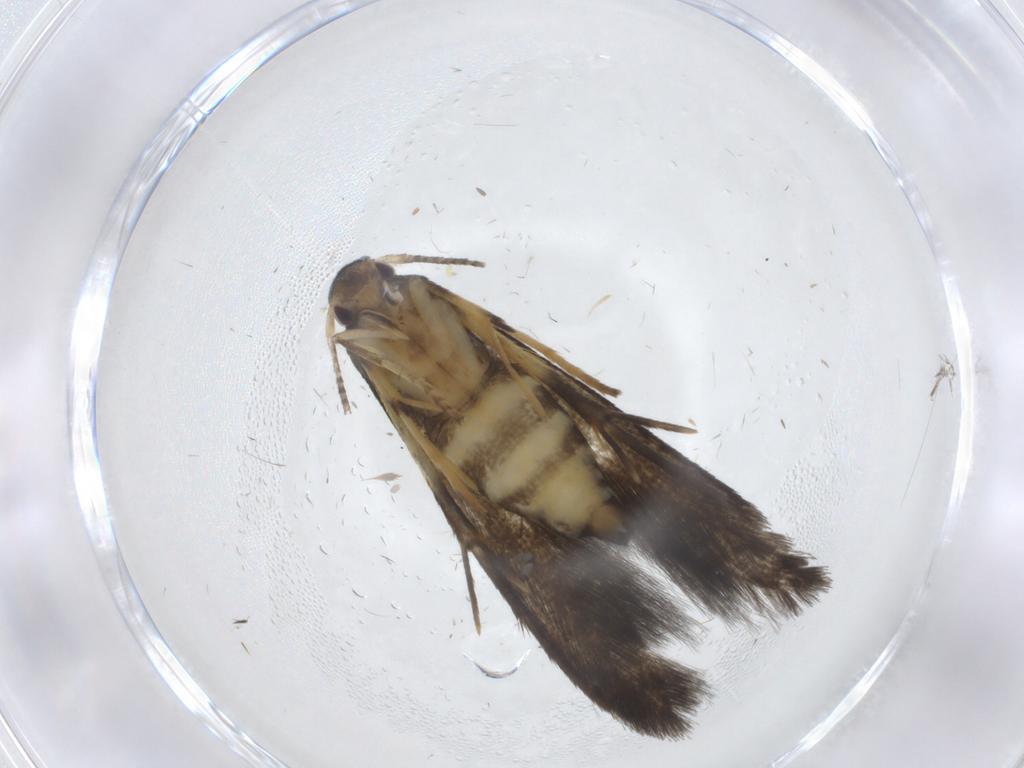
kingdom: Animalia
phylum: Arthropoda
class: Insecta
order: Lepidoptera
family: Stathmopodidae
